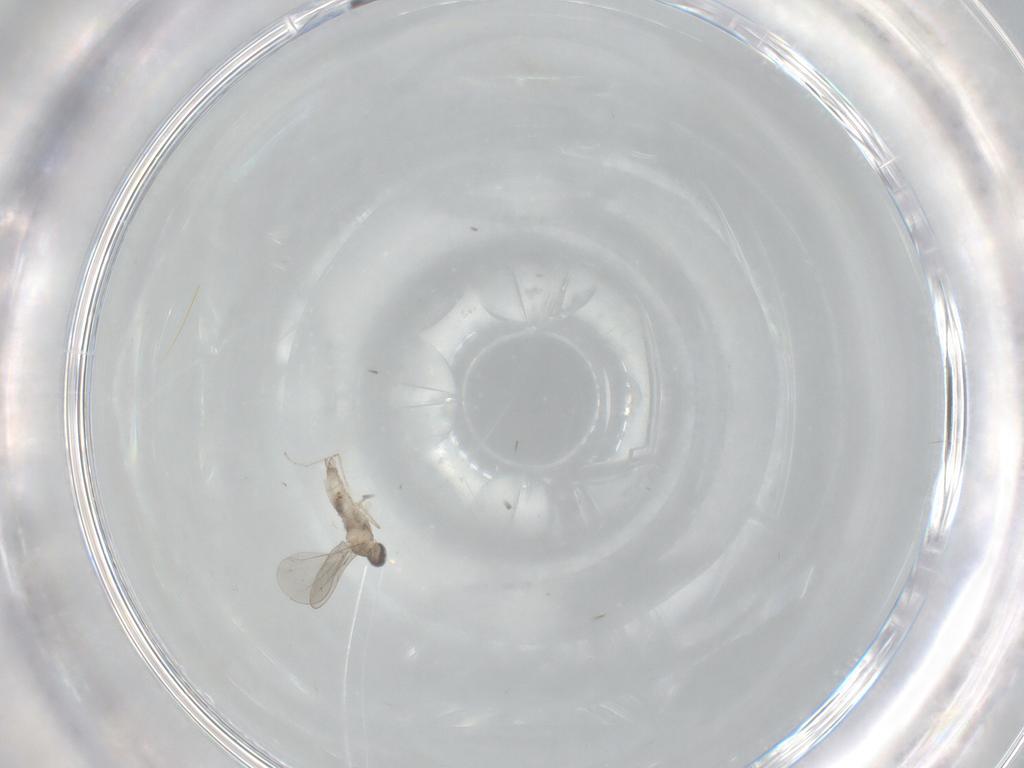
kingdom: Animalia
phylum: Arthropoda
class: Insecta
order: Diptera
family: Cecidomyiidae
